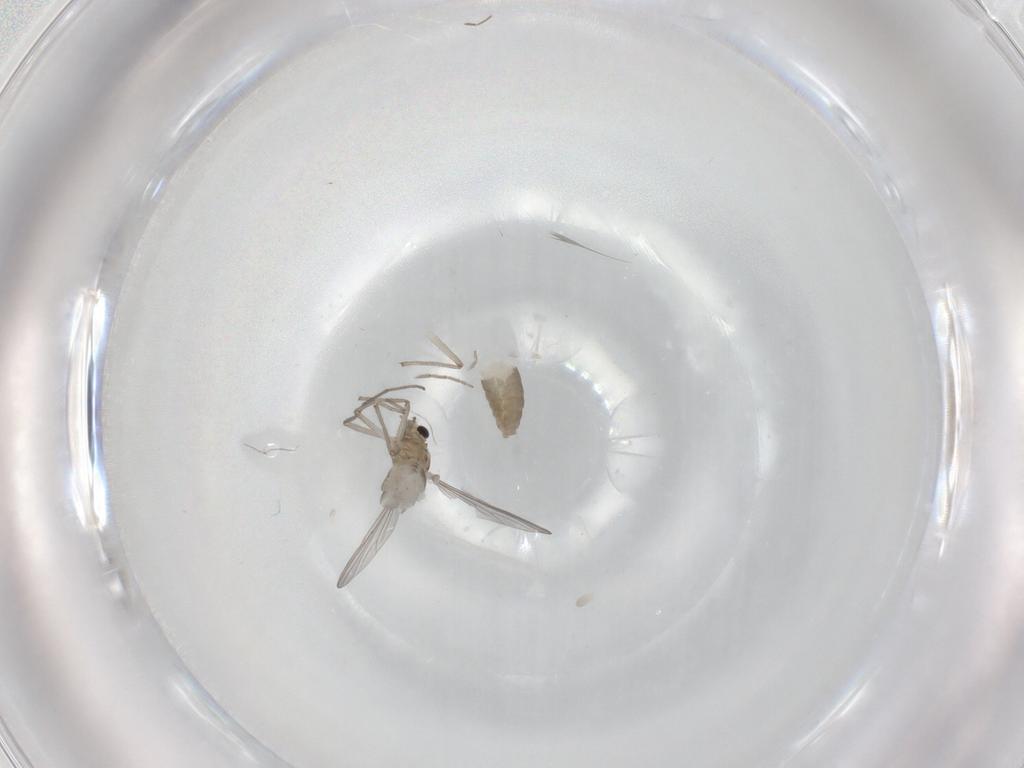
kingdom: Animalia
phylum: Arthropoda
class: Insecta
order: Diptera
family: Chironomidae
